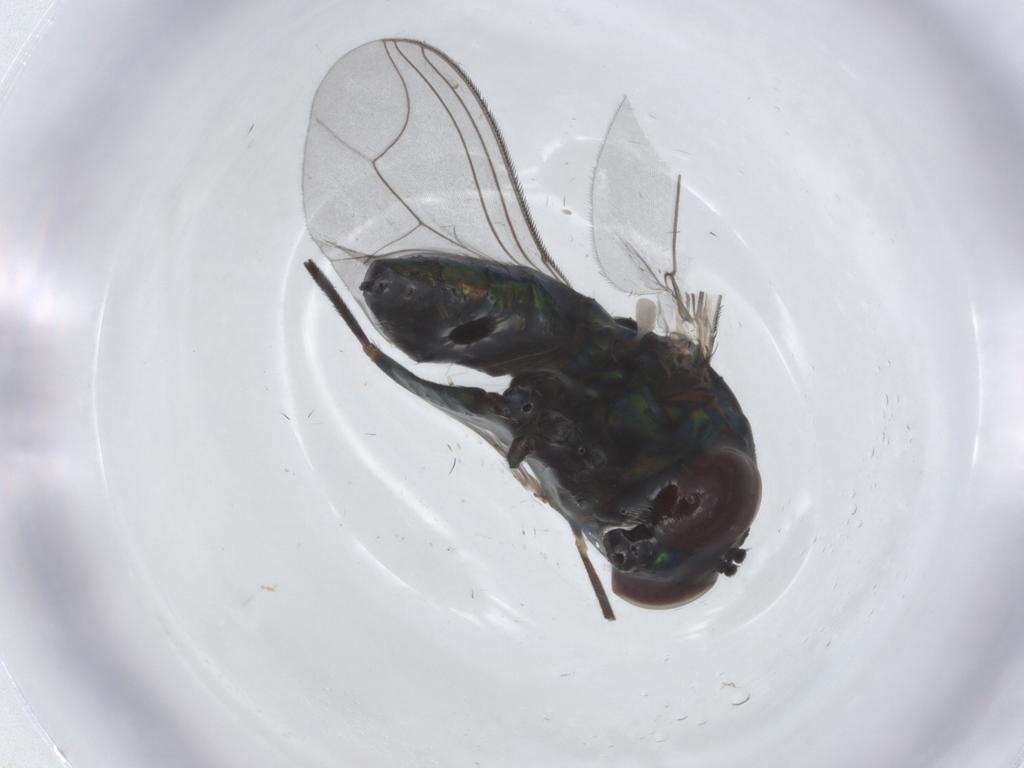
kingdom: Animalia
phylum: Arthropoda
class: Insecta
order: Diptera
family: Dolichopodidae
